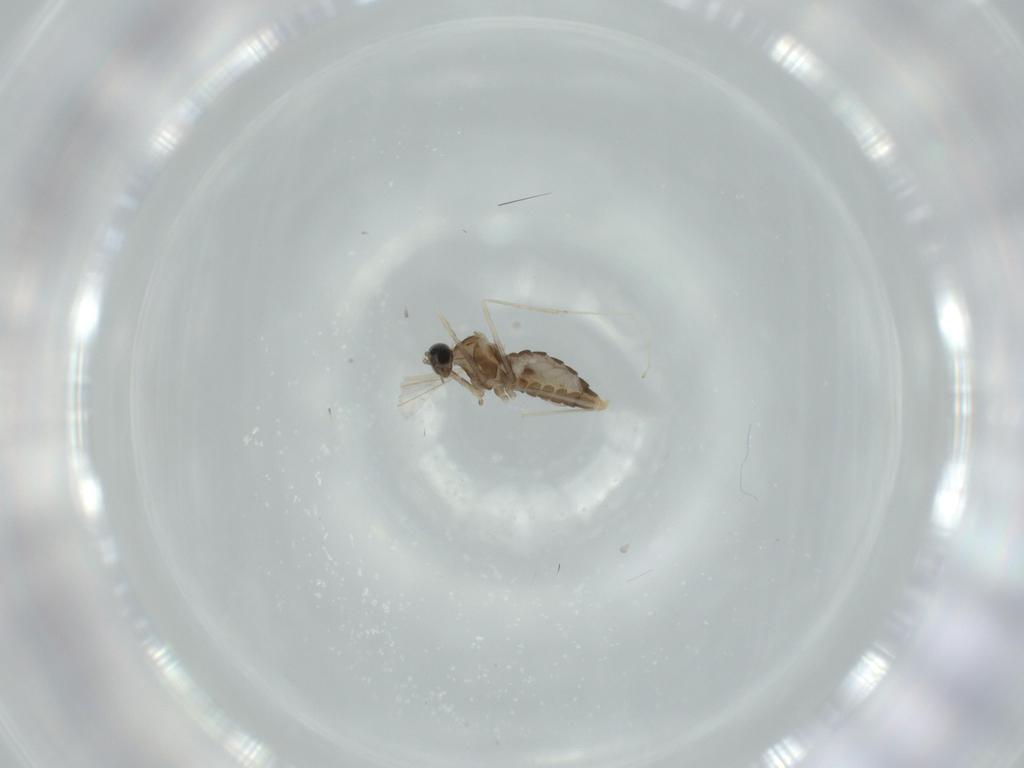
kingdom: Animalia
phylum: Arthropoda
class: Insecta
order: Diptera
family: Cecidomyiidae
